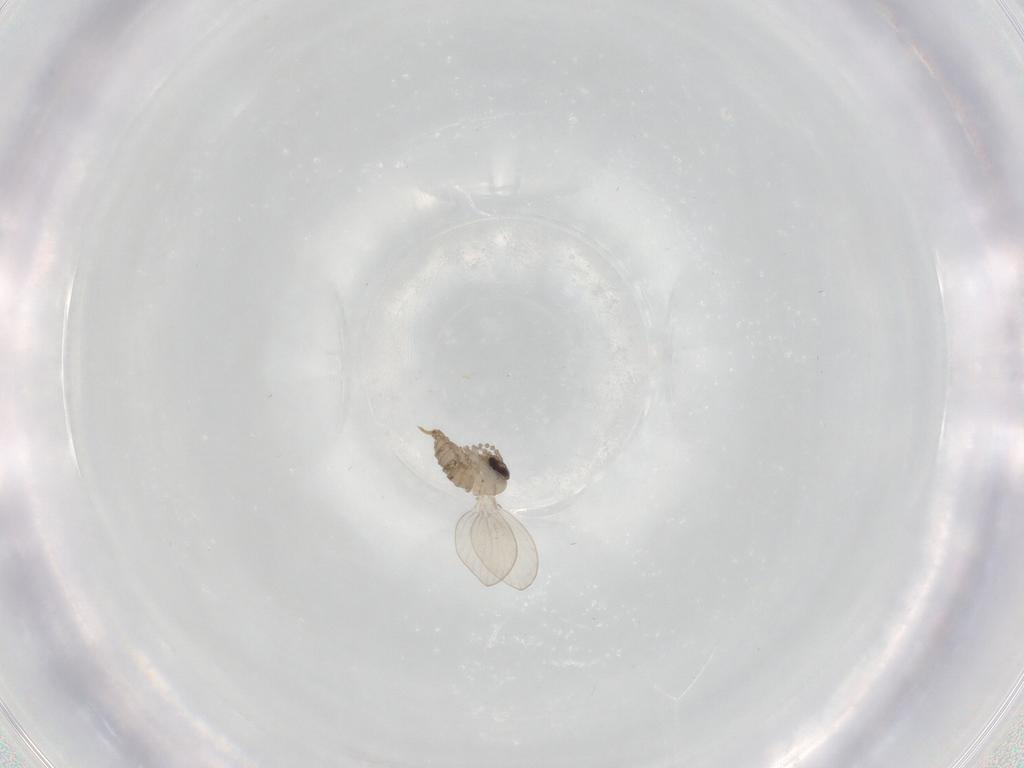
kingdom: Animalia
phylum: Arthropoda
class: Insecta
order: Diptera
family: Psychodidae
